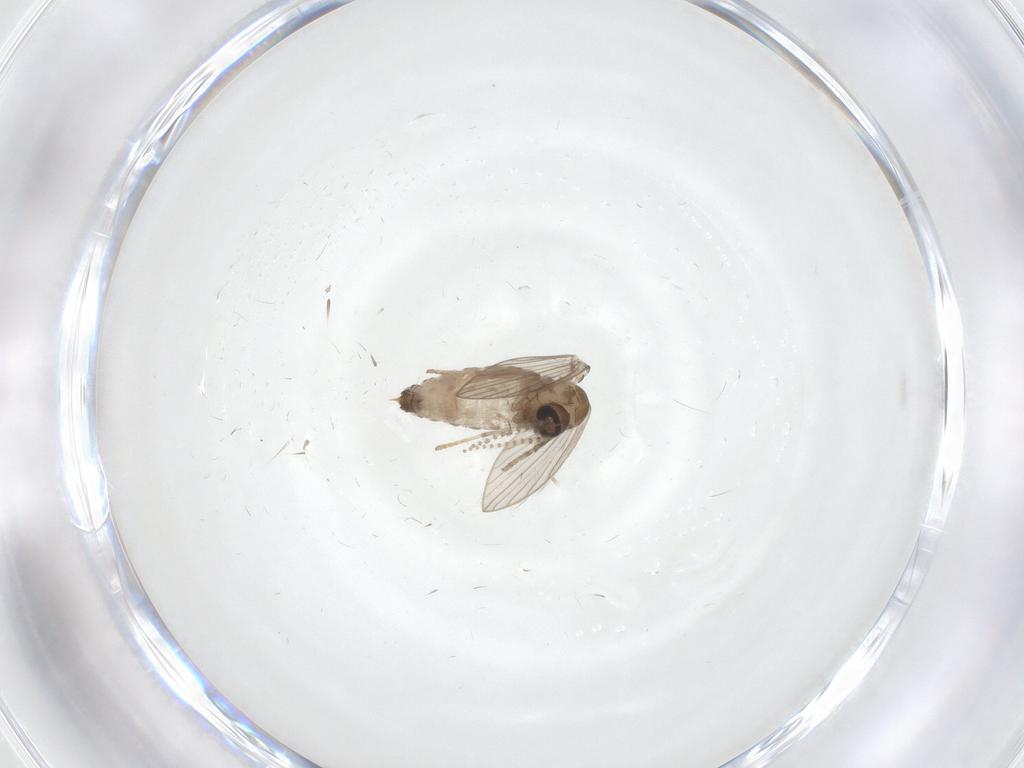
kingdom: Animalia
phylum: Arthropoda
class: Insecta
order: Diptera
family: Psychodidae
